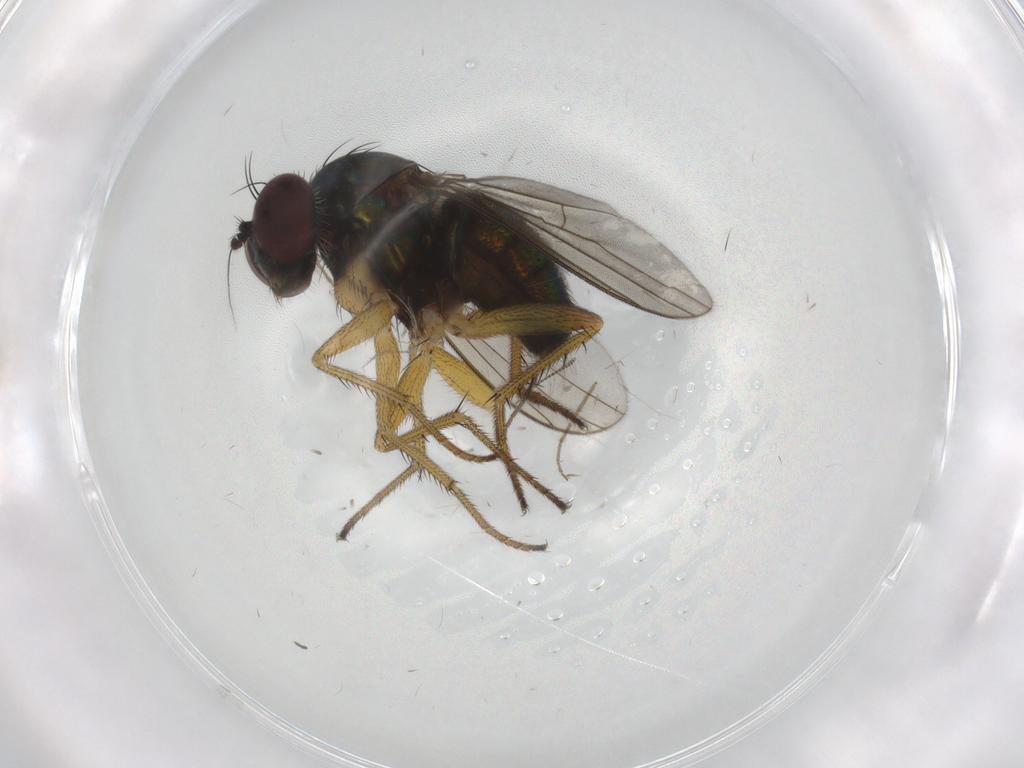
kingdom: Animalia
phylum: Arthropoda
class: Insecta
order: Diptera
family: Dolichopodidae
